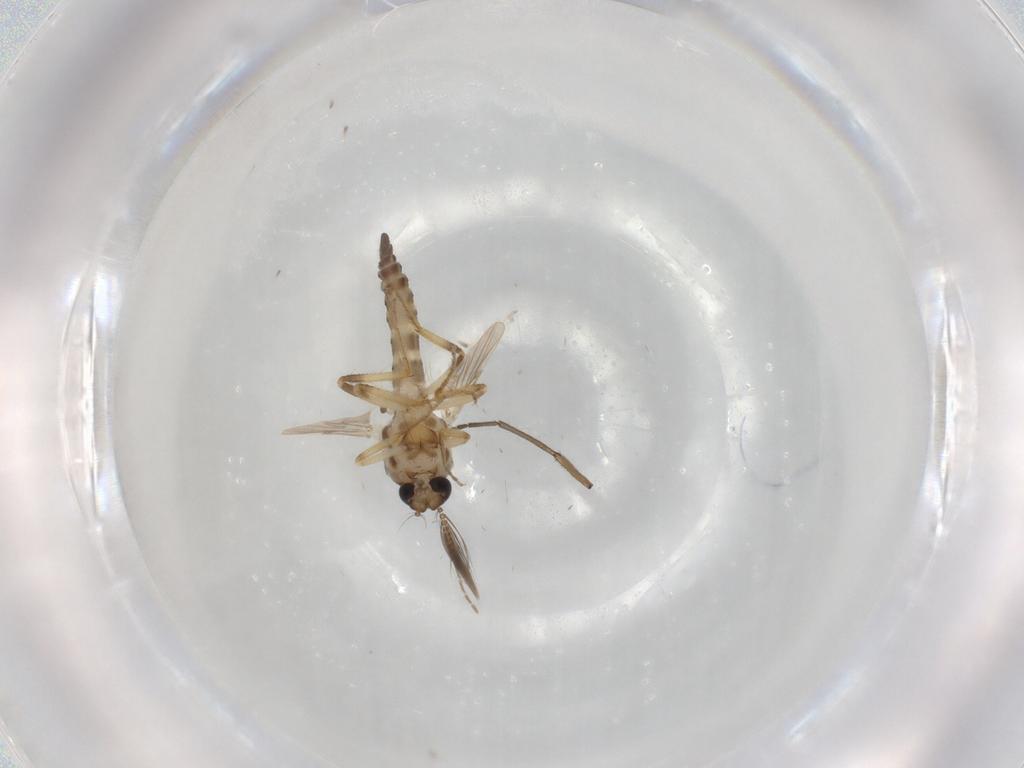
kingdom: Animalia
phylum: Arthropoda
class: Insecta
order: Diptera
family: Ceratopogonidae
